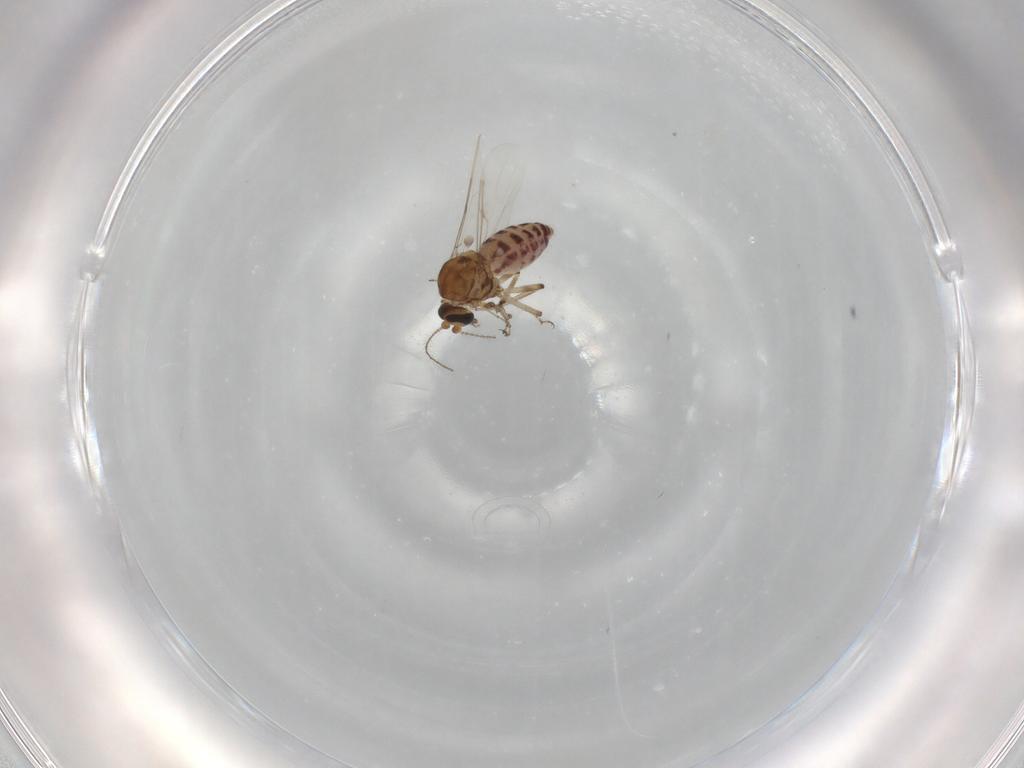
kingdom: Animalia
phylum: Arthropoda
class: Insecta
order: Diptera
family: Ceratopogonidae
